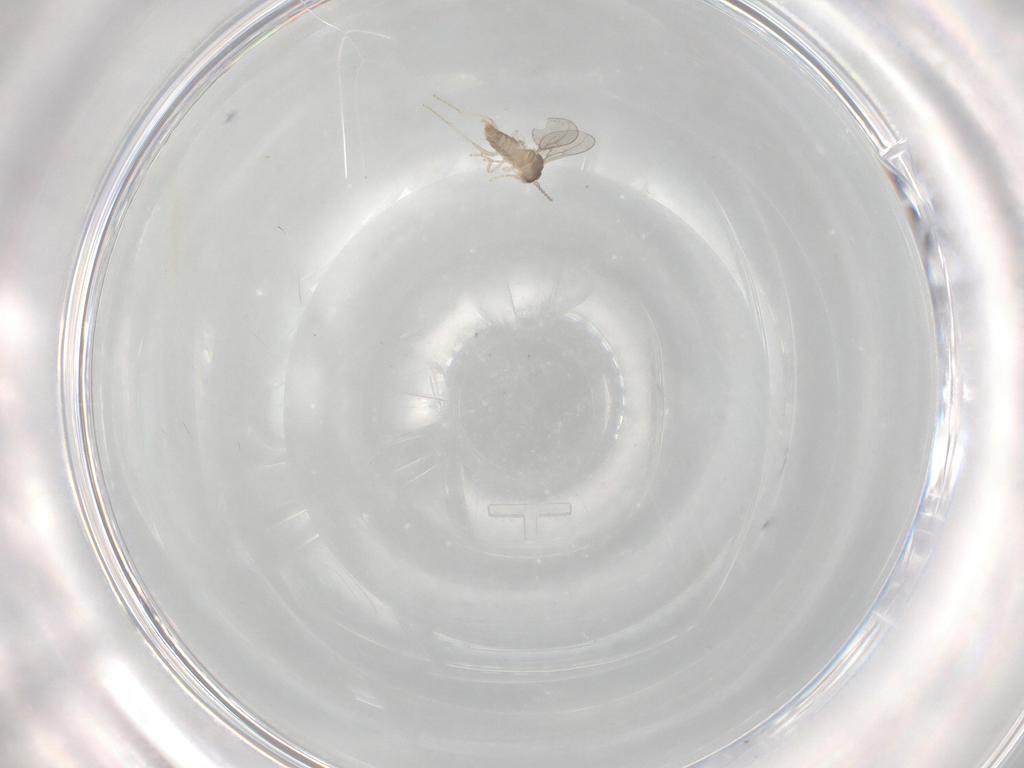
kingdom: Animalia
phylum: Arthropoda
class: Insecta
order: Diptera
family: Cecidomyiidae
